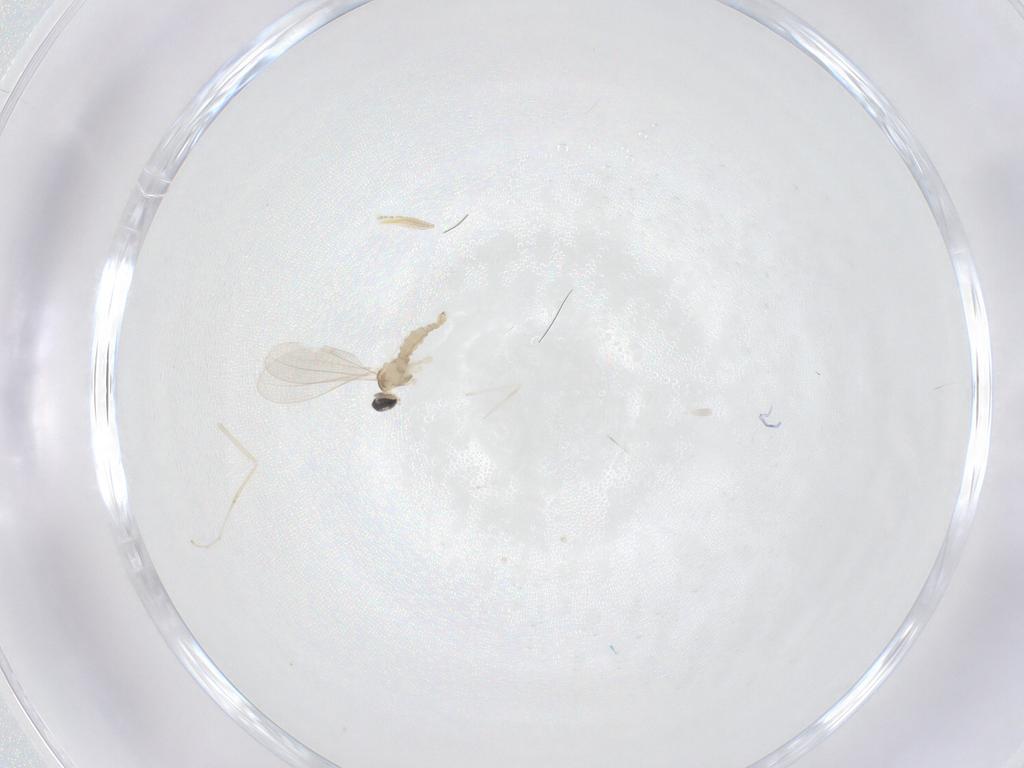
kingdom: Animalia
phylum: Arthropoda
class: Insecta
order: Diptera
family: Cecidomyiidae
